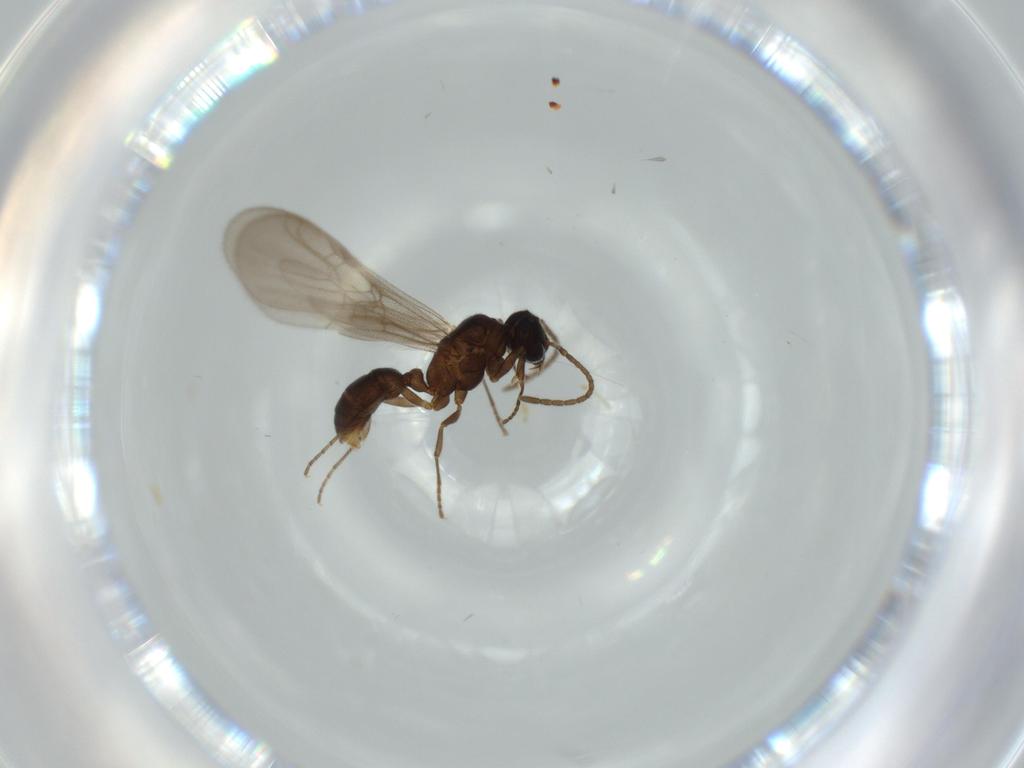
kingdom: Animalia
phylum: Arthropoda
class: Insecta
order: Hymenoptera
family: Formicidae
